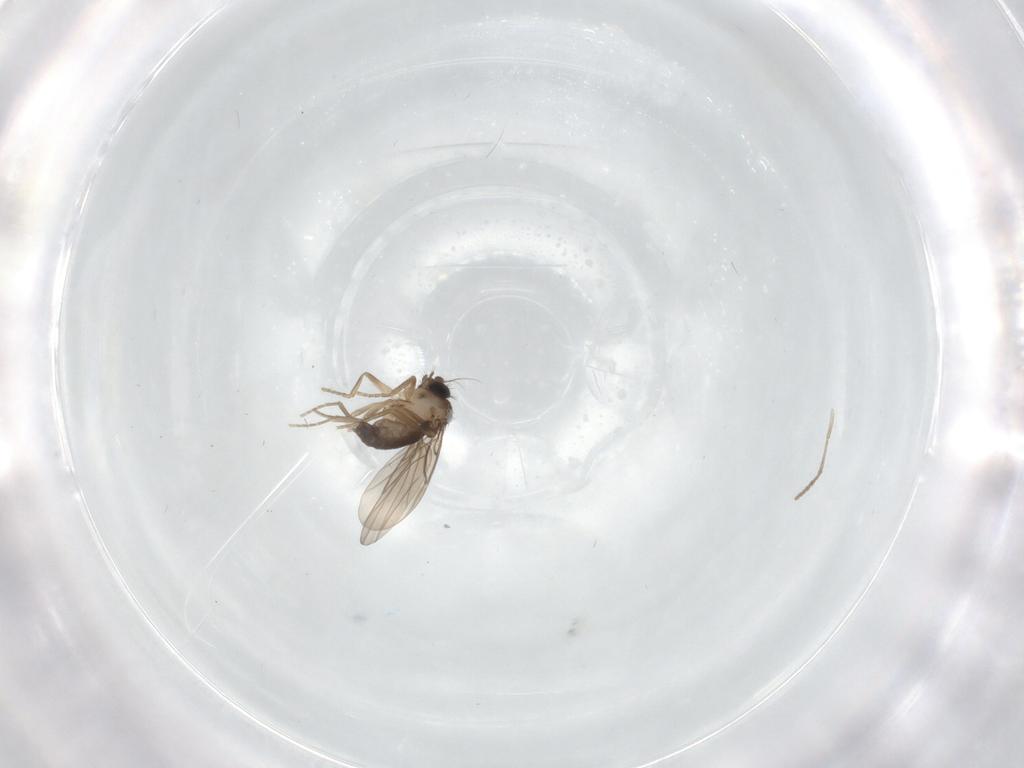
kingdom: Animalia
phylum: Arthropoda
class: Insecta
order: Diptera
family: Phoridae
